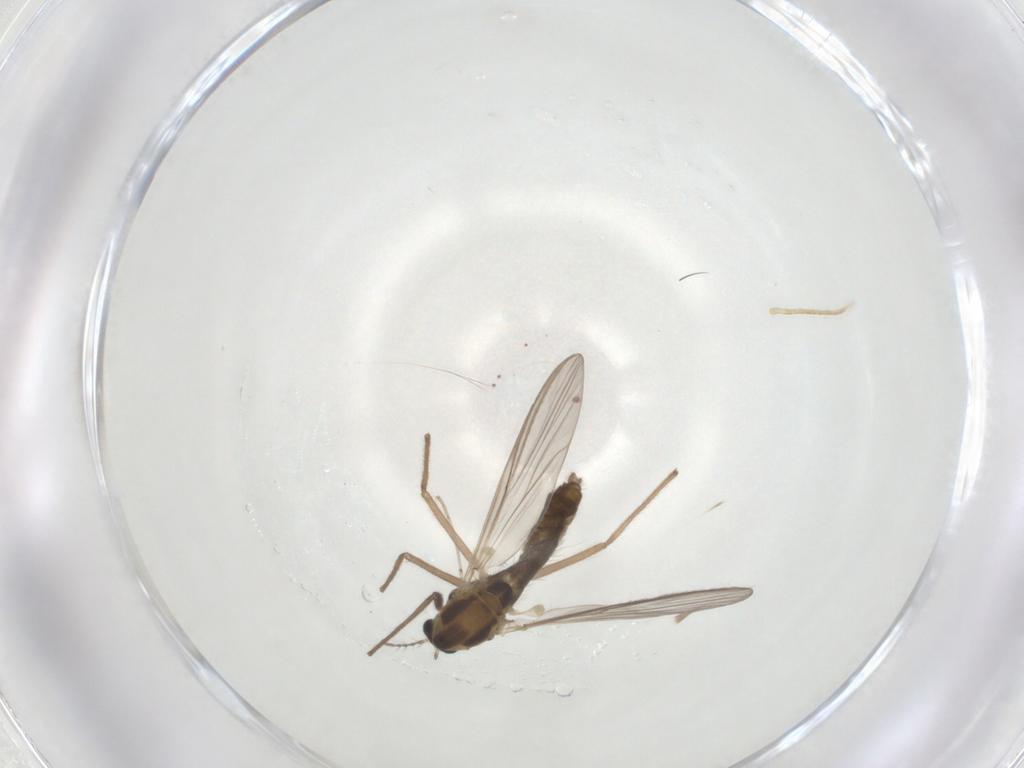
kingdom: Animalia
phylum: Arthropoda
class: Insecta
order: Diptera
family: Chironomidae
